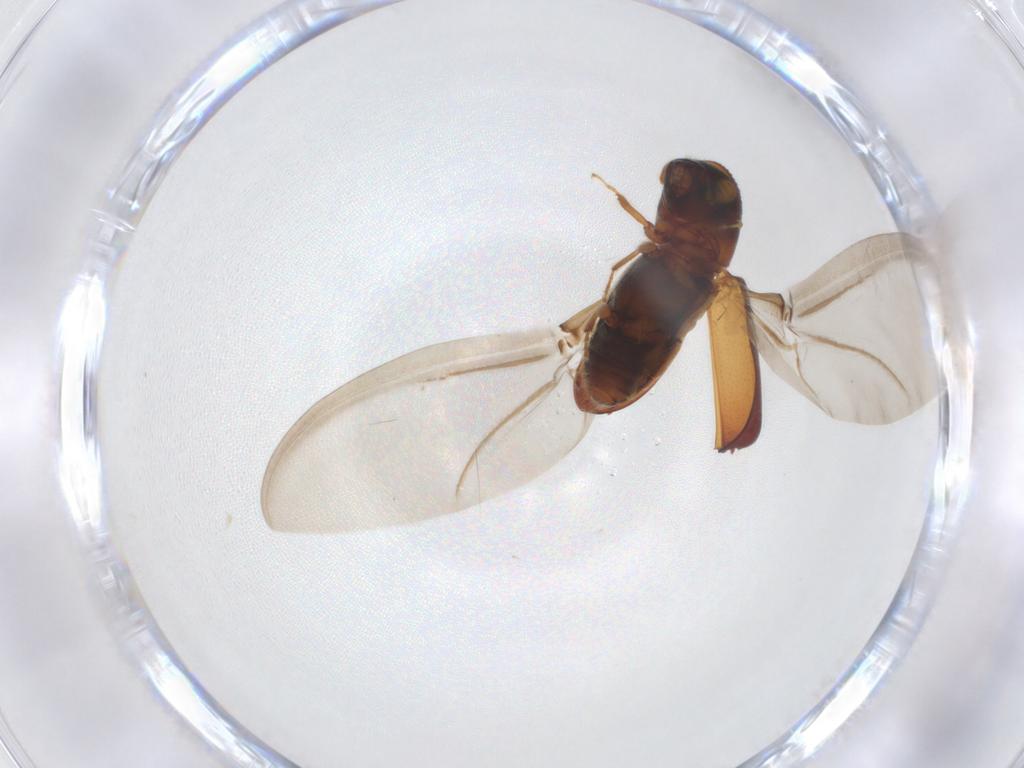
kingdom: Animalia
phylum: Arthropoda
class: Insecta
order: Coleoptera
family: Curculionidae
